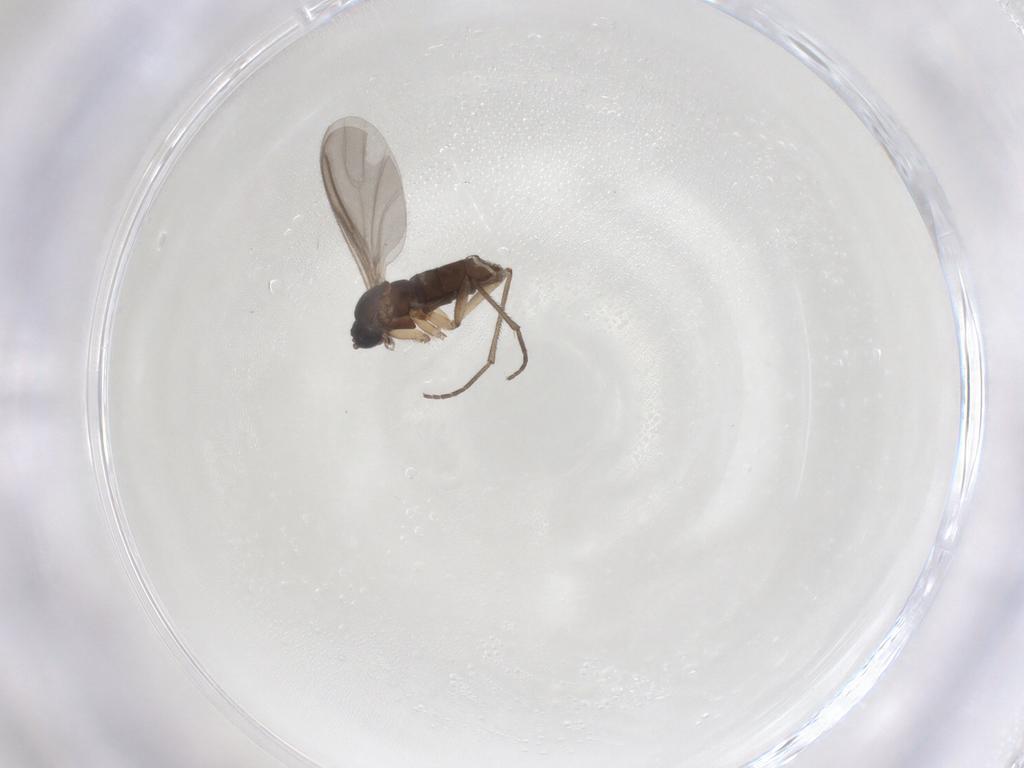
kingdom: Animalia
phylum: Arthropoda
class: Insecta
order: Diptera
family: Sciaridae
